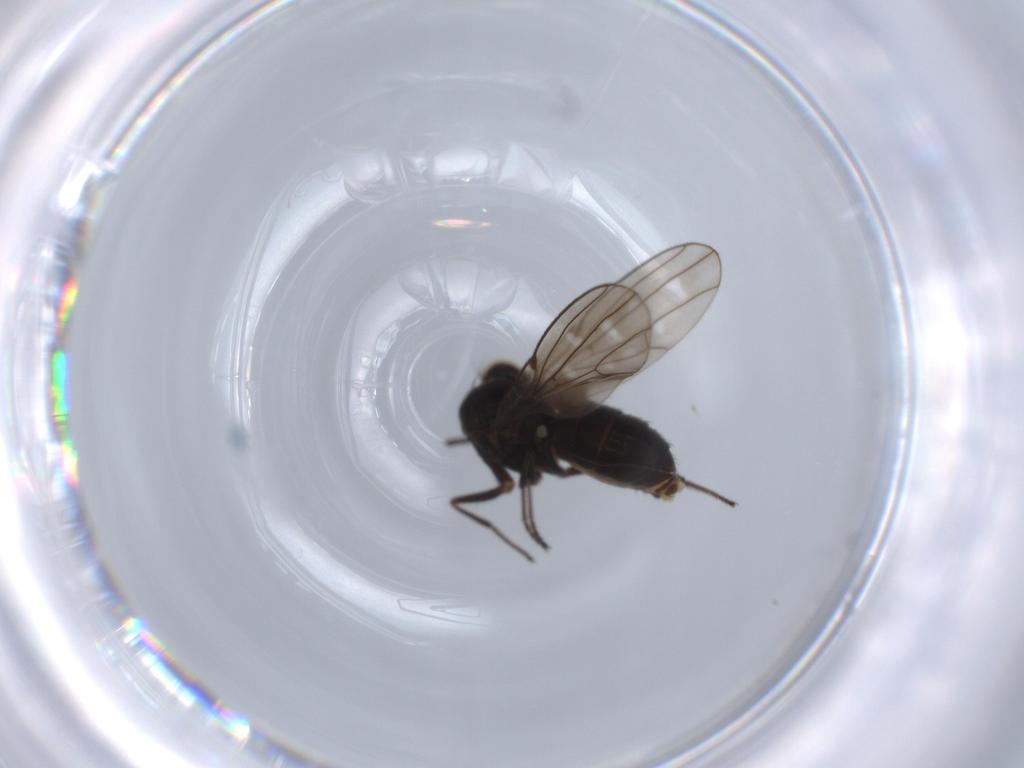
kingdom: Animalia
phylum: Arthropoda
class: Insecta
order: Diptera
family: Ephydridae
